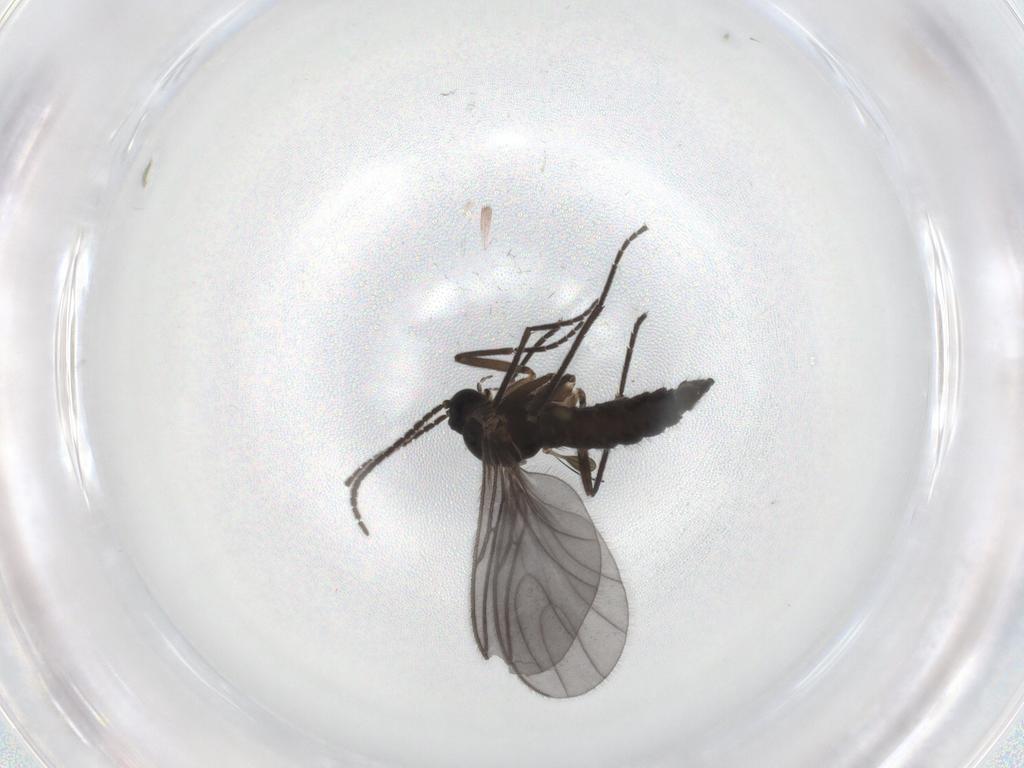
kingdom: Animalia
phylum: Arthropoda
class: Insecta
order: Diptera
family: Sciaridae
